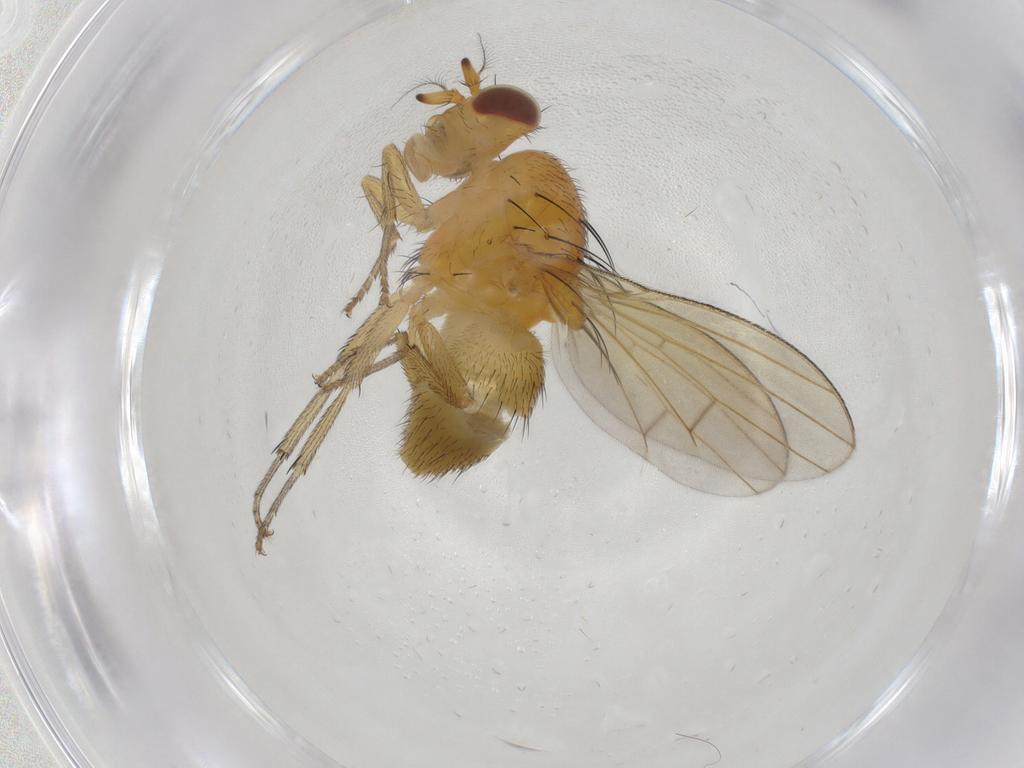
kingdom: Animalia
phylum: Arthropoda
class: Insecta
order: Diptera
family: Lauxaniidae
